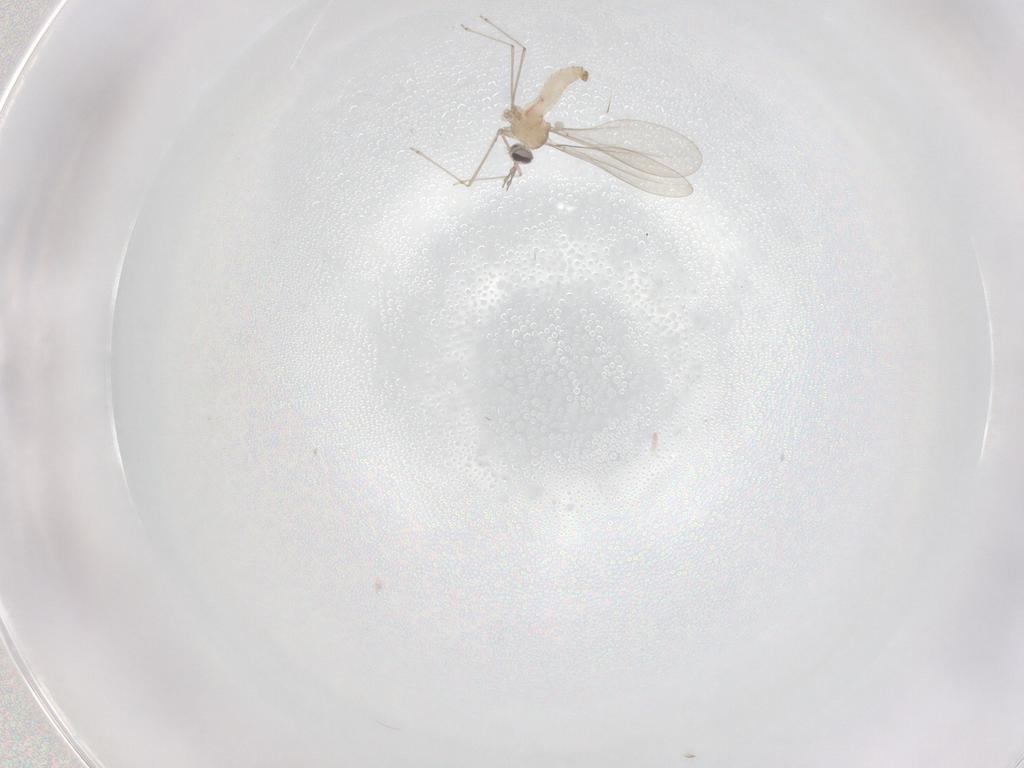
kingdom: Animalia
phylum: Arthropoda
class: Insecta
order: Diptera
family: Cecidomyiidae
